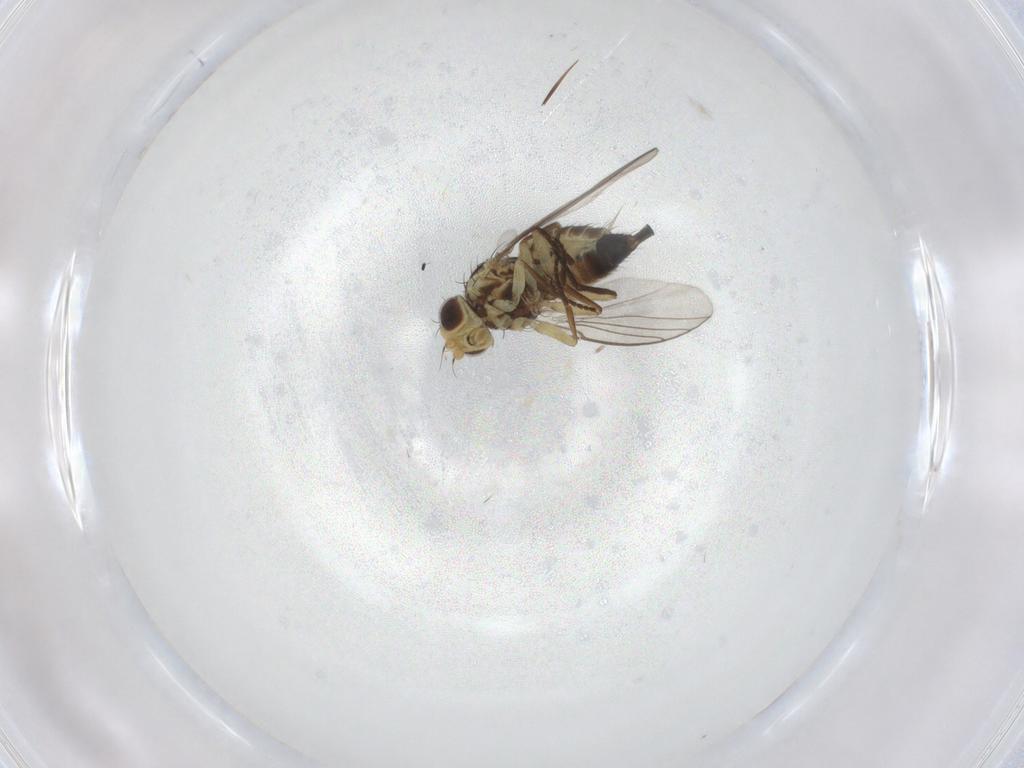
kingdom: Animalia
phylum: Arthropoda
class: Insecta
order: Diptera
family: Agromyzidae
